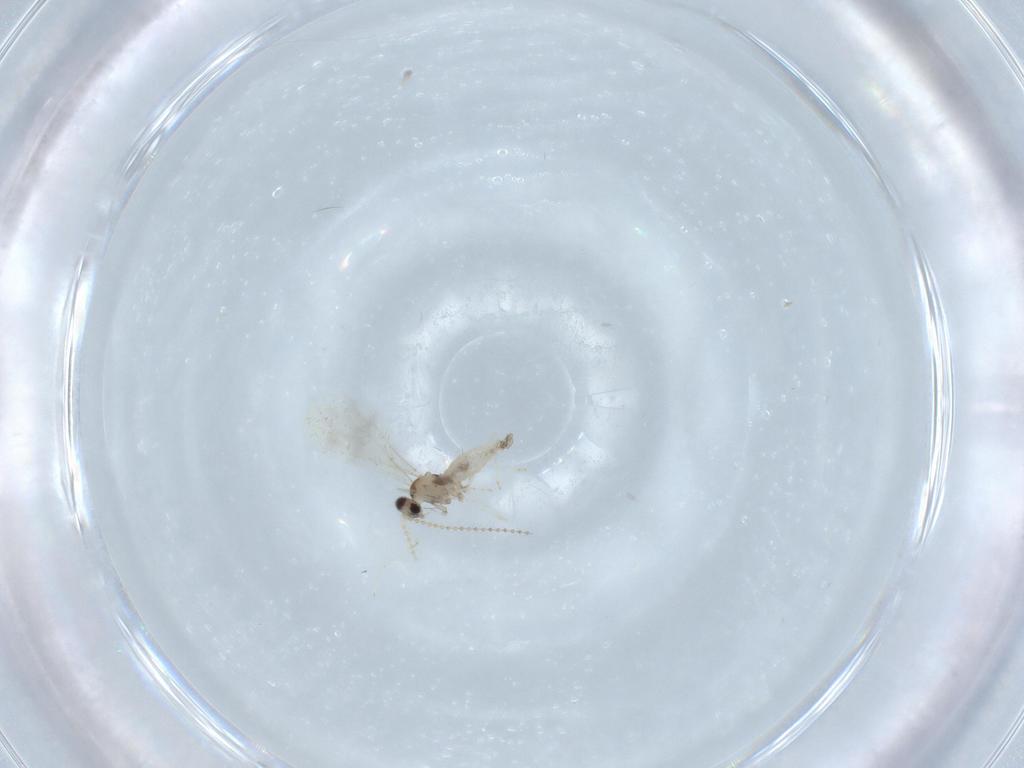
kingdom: Animalia
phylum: Arthropoda
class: Insecta
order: Diptera
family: Cecidomyiidae
